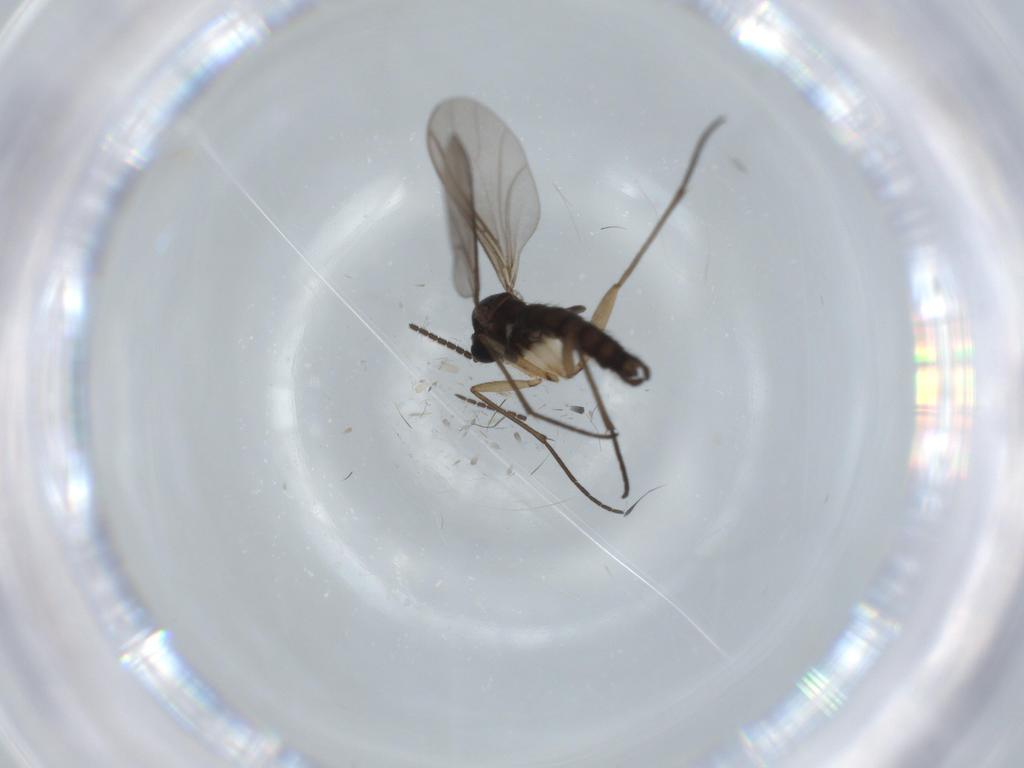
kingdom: Animalia
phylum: Arthropoda
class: Insecta
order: Diptera
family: Sciaridae
